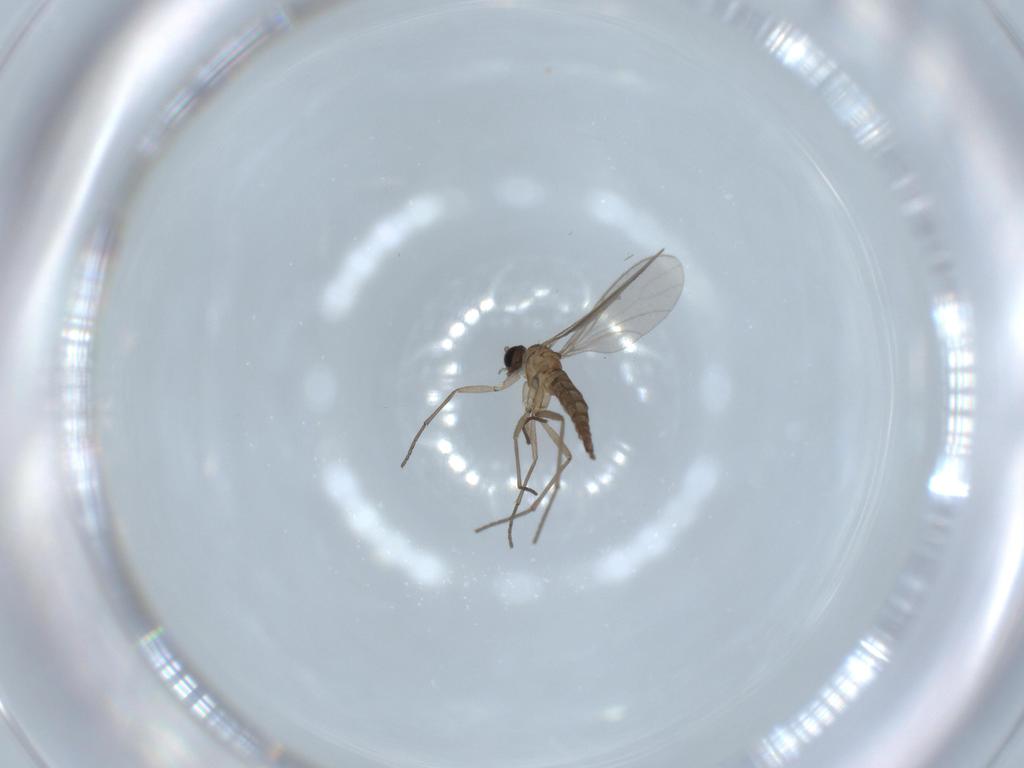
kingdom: Animalia
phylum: Arthropoda
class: Insecta
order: Diptera
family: Sciaridae
